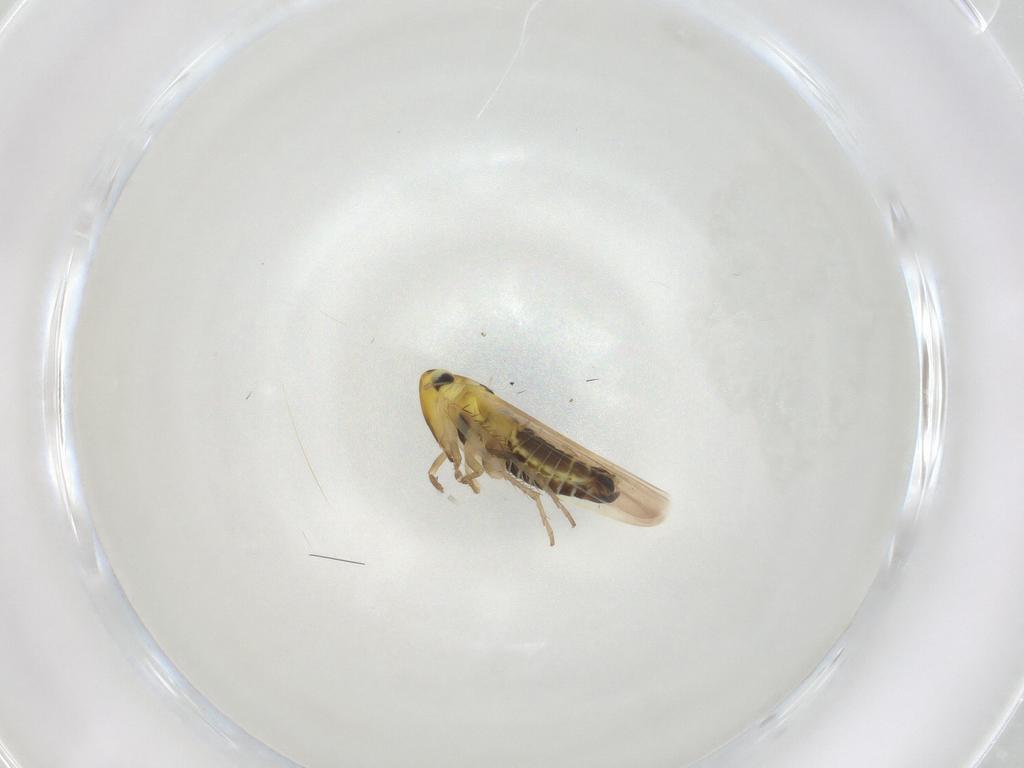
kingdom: Animalia
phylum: Arthropoda
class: Insecta
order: Hemiptera
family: Cicadellidae
